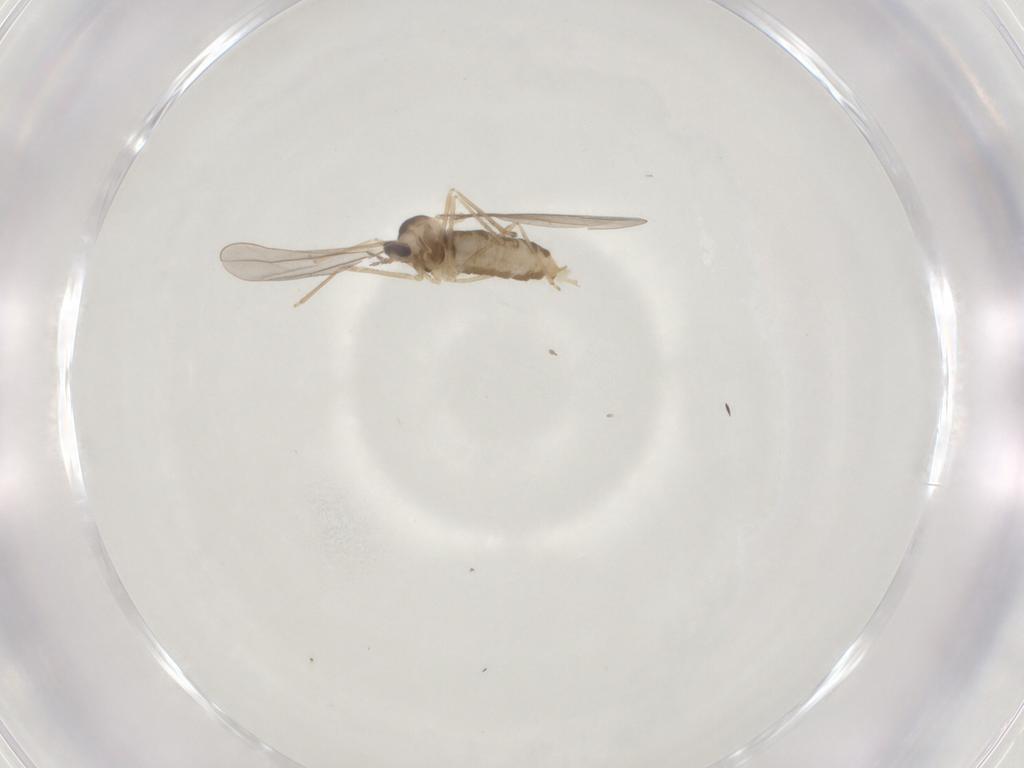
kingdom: Animalia
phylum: Arthropoda
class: Insecta
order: Diptera
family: Cecidomyiidae
